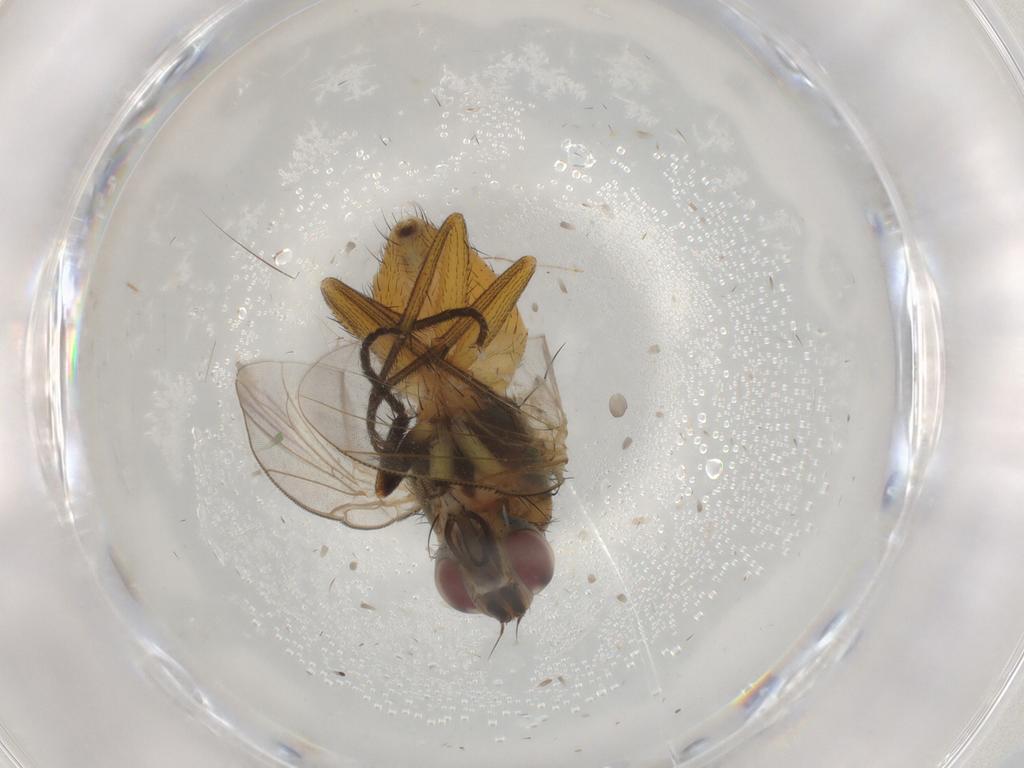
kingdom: Animalia
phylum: Arthropoda
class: Insecta
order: Diptera
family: Muscidae
